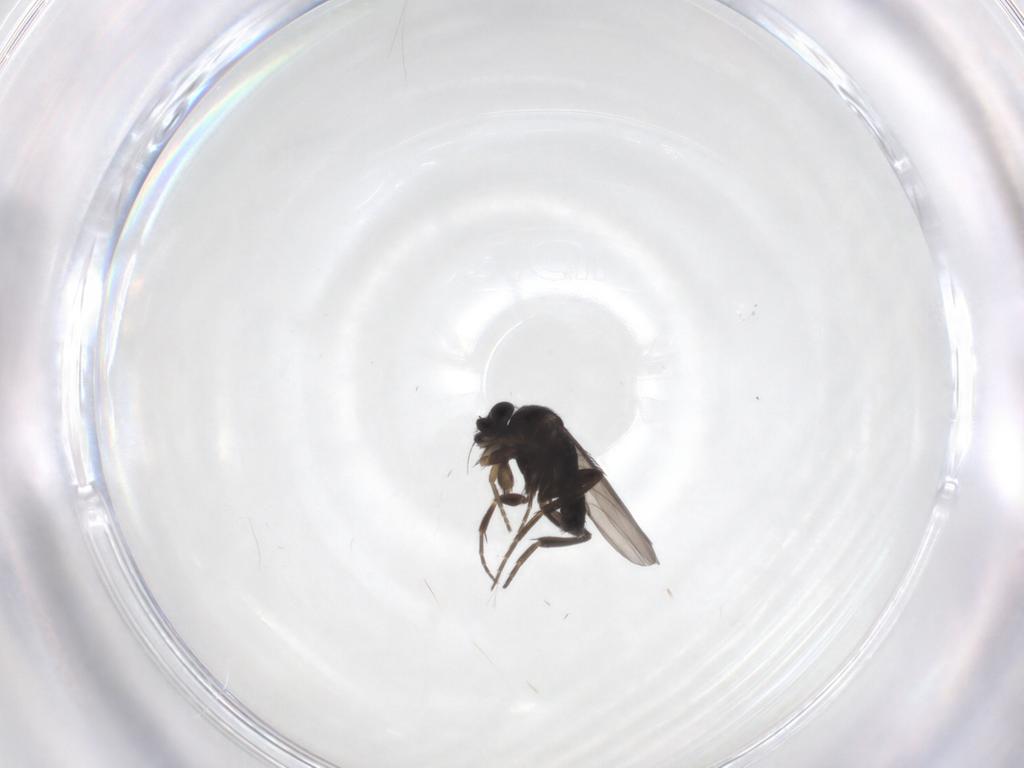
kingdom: Animalia
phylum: Arthropoda
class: Insecta
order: Diptera
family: Phoridae
